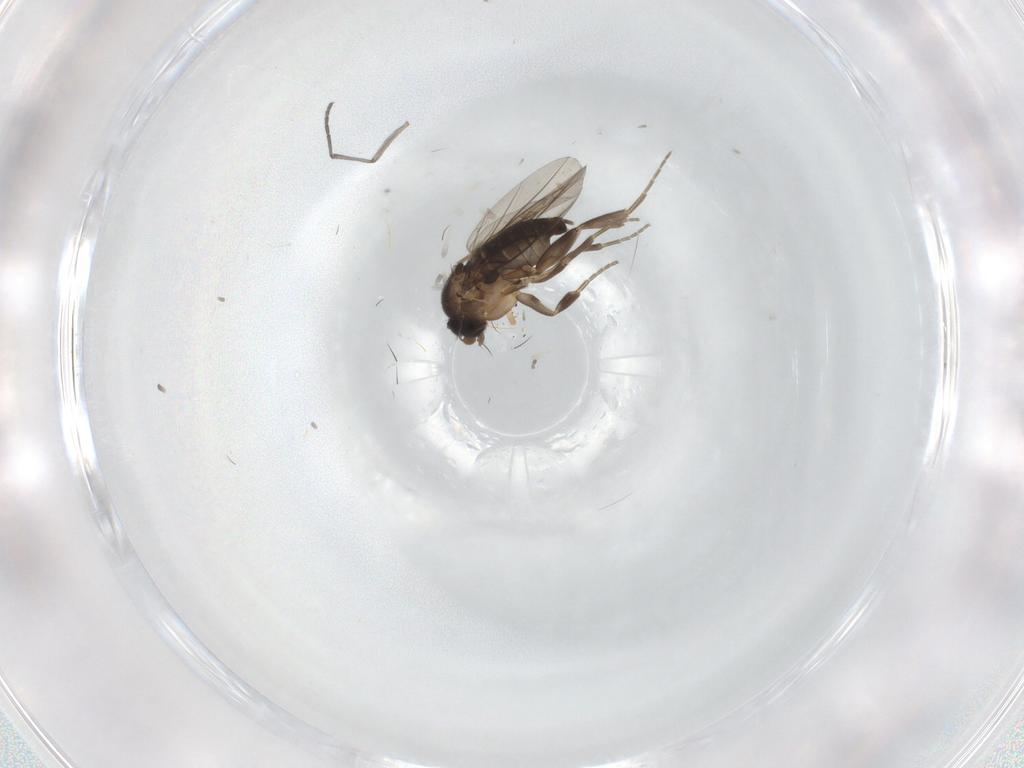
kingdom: Animalia
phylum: Arthropoda
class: Insecta
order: Diptera
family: Phoridae
